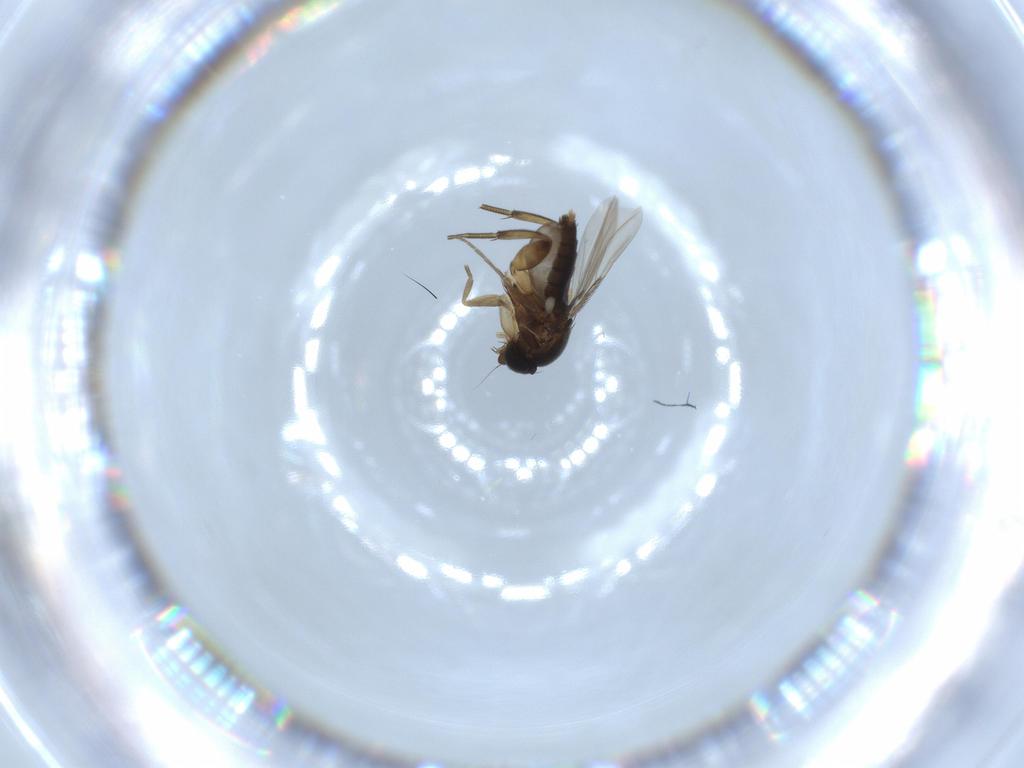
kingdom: Animalia
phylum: Arthropoda
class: Insecta
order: Diptera
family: Phoridae
